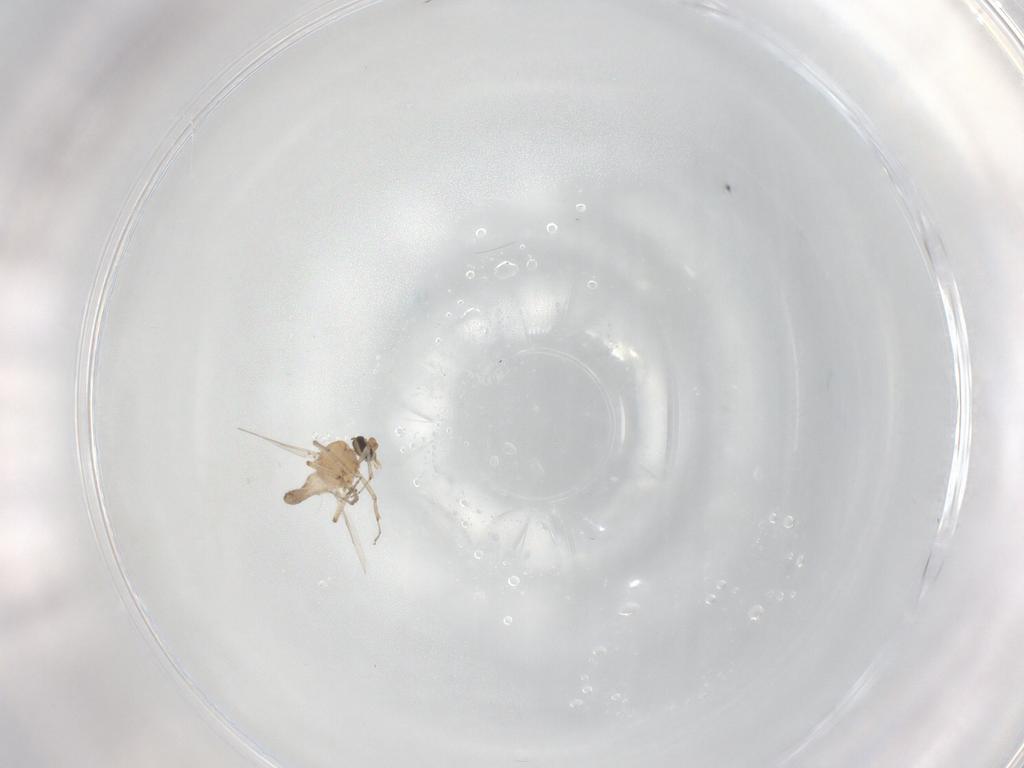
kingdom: Animalia
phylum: Arthropoda
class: Insecta
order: Diptera
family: Ceratopogonidae
